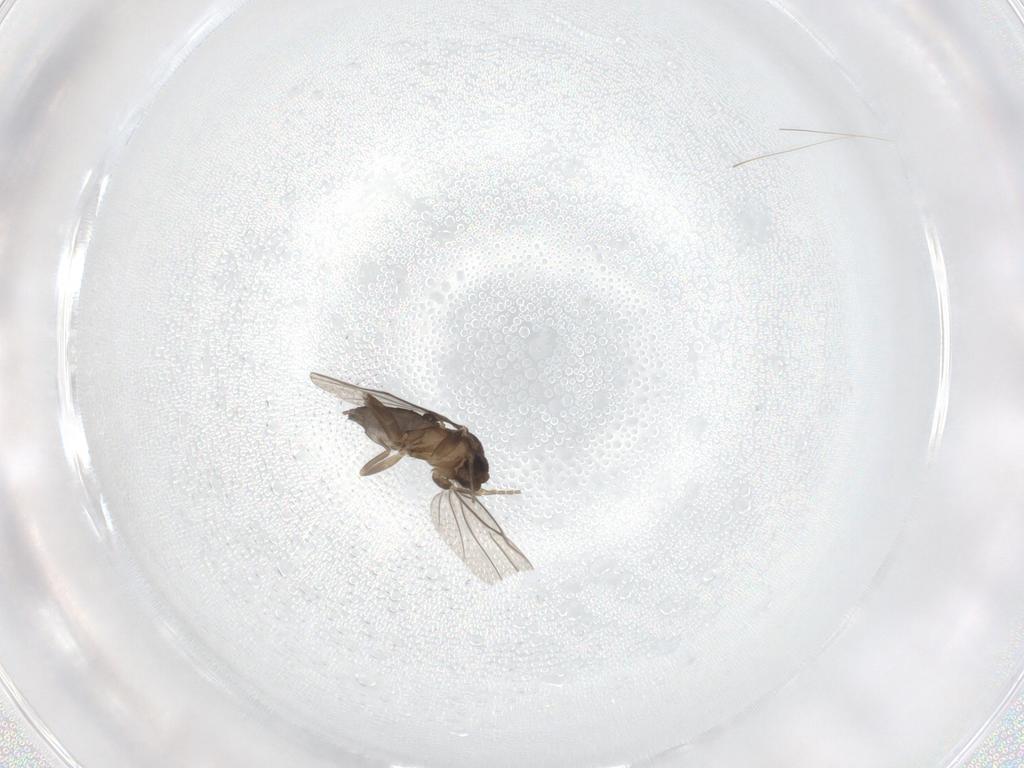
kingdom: Animalia
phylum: Arthropoda
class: Insecta
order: Diptera
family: Phoridae
